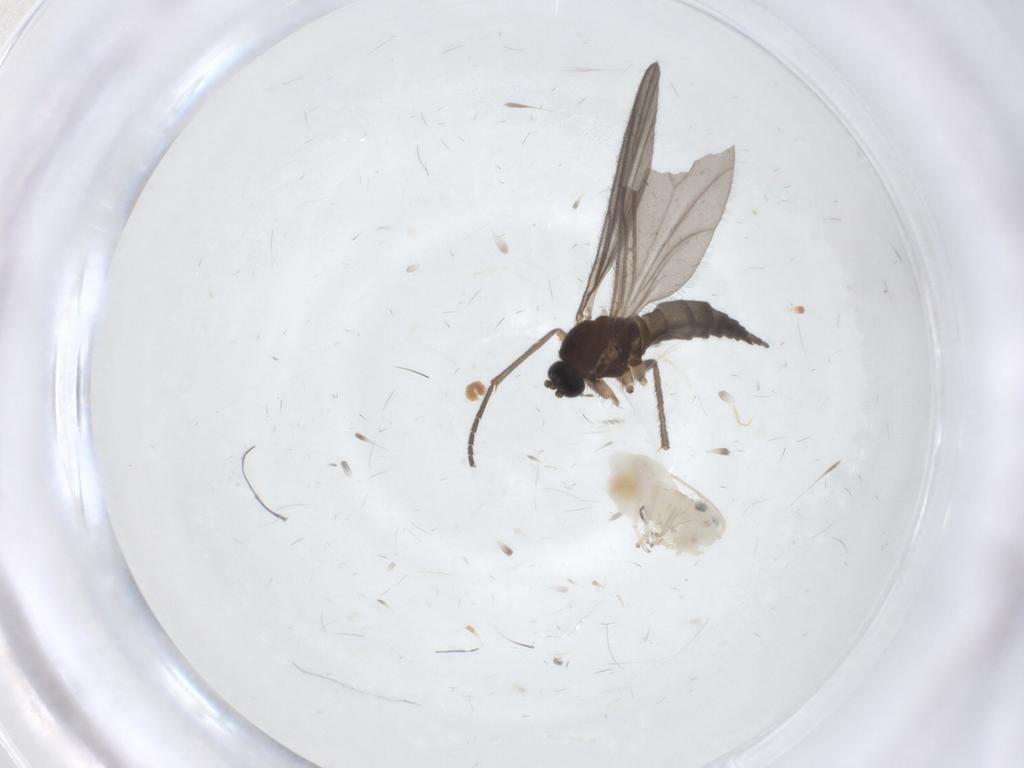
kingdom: Animalia
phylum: Arthropoda
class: Insecta
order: Diptera
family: Sciaridae
